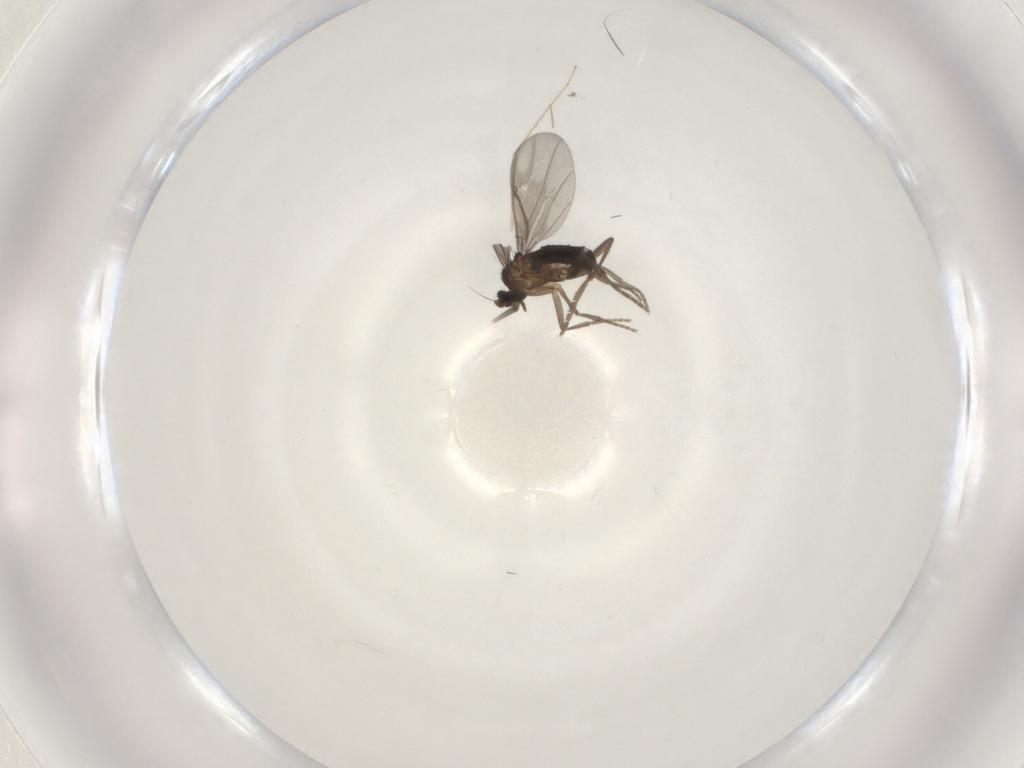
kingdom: Animalia
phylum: Arthropoda
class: Insecta
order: Diptera
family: Phoridae
